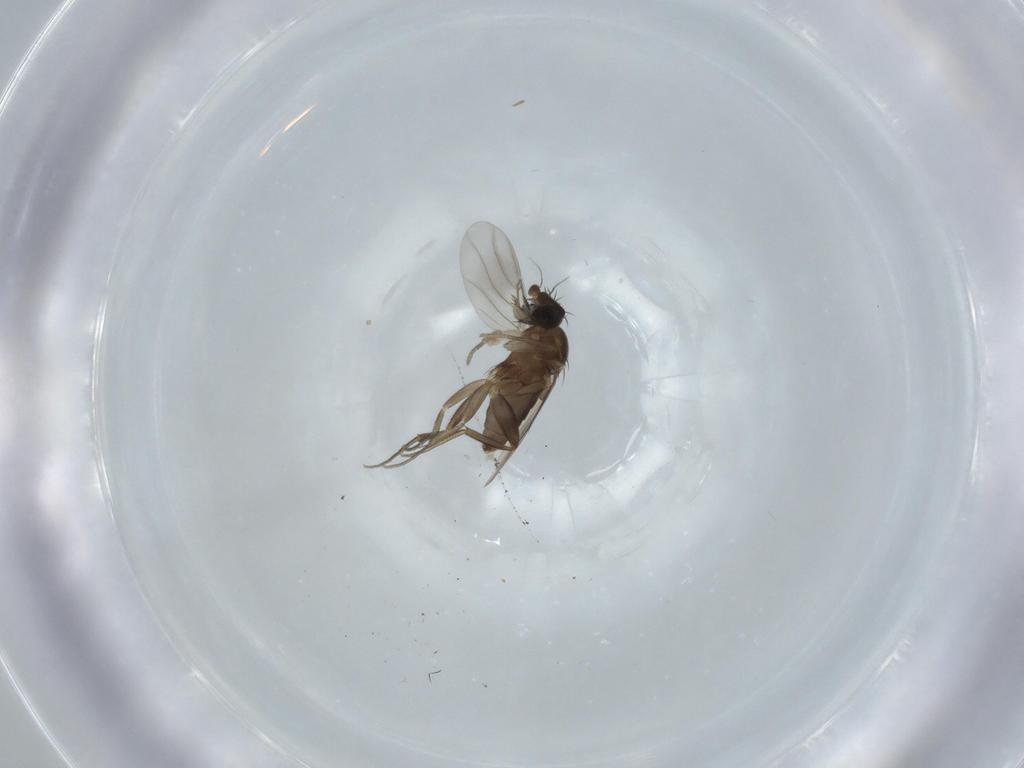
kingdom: Animalia
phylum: Arthropoda
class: Insecta
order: Diptera
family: Phoridae
